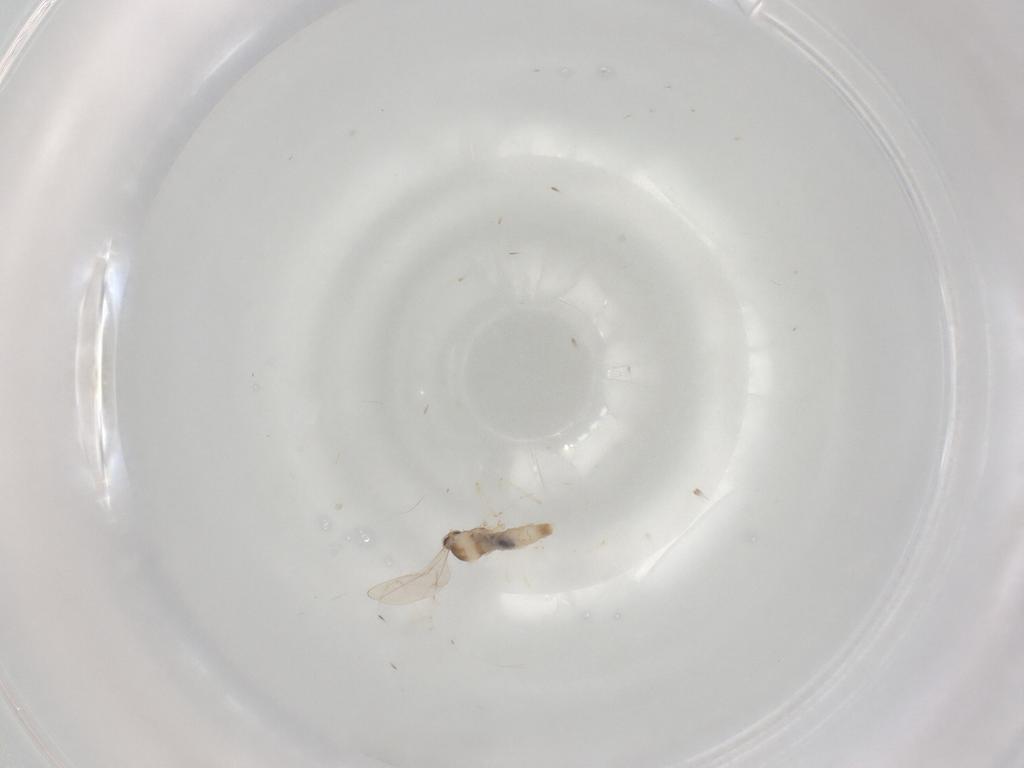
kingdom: Animalia
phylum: Arthropoda
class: Insecta
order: Diptera
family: Cecidomyiidae
